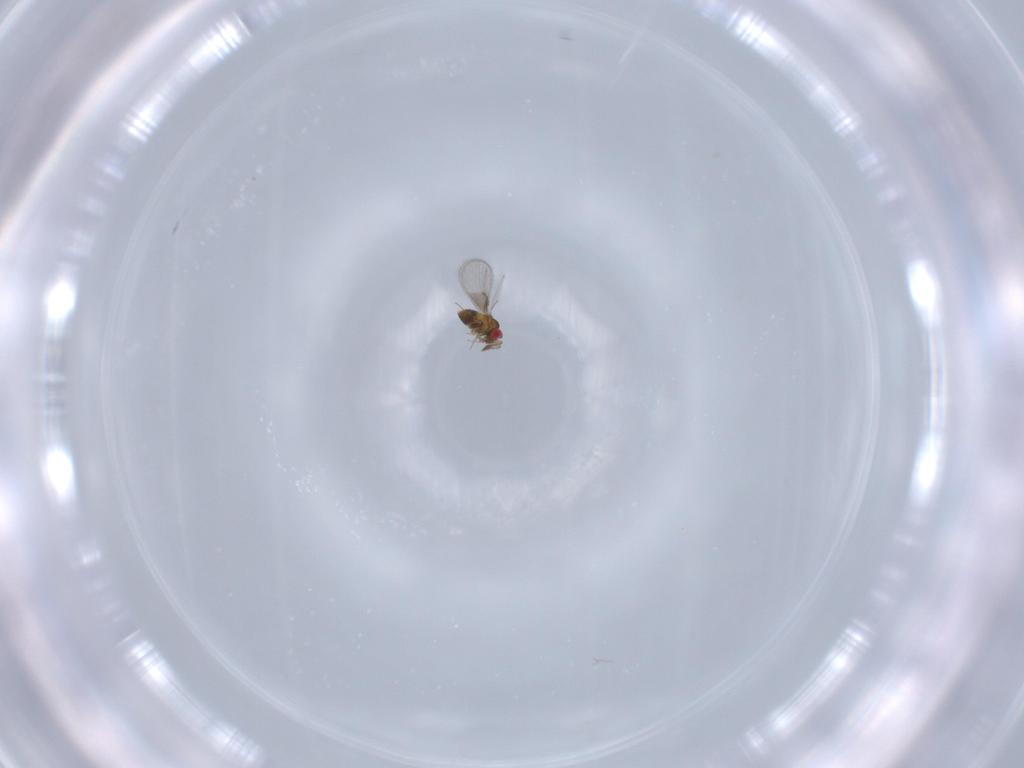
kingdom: Animalia
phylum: Arthropoda
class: Insecta
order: Hymenoptera
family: Trichogrammatidae
